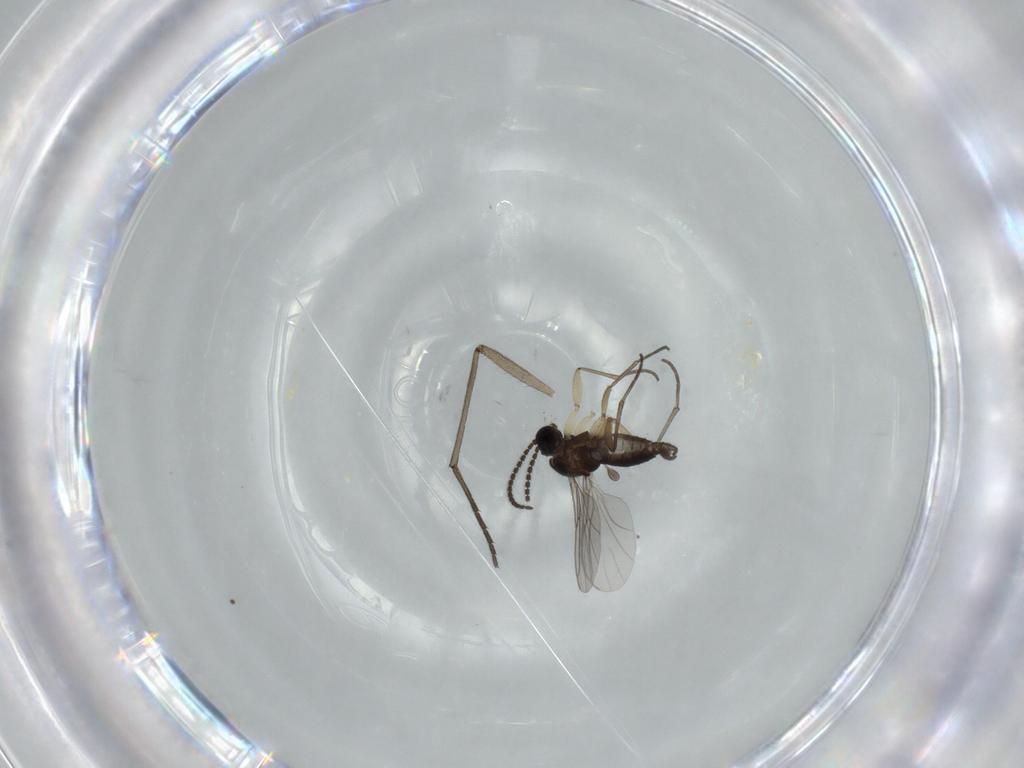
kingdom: Animalia
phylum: Arthropoda
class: Insecta
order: Diptera
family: Sciaridae
